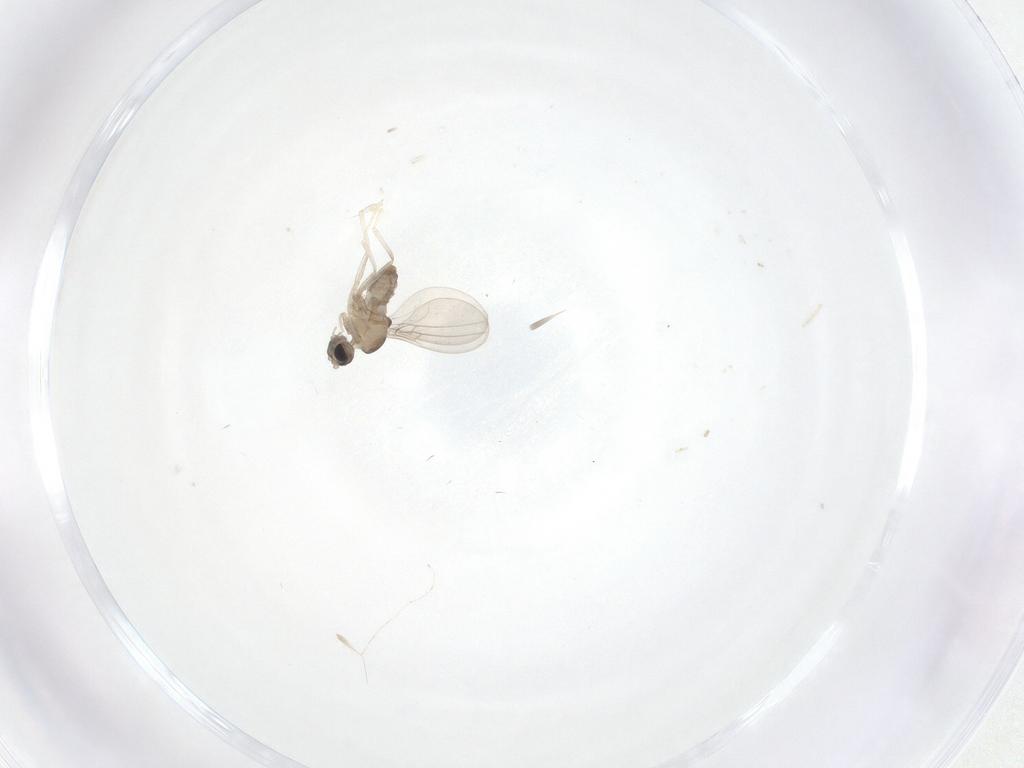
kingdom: Animalia
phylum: Arthropoda
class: Insecta
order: Diptera
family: Cecidomyiidae
